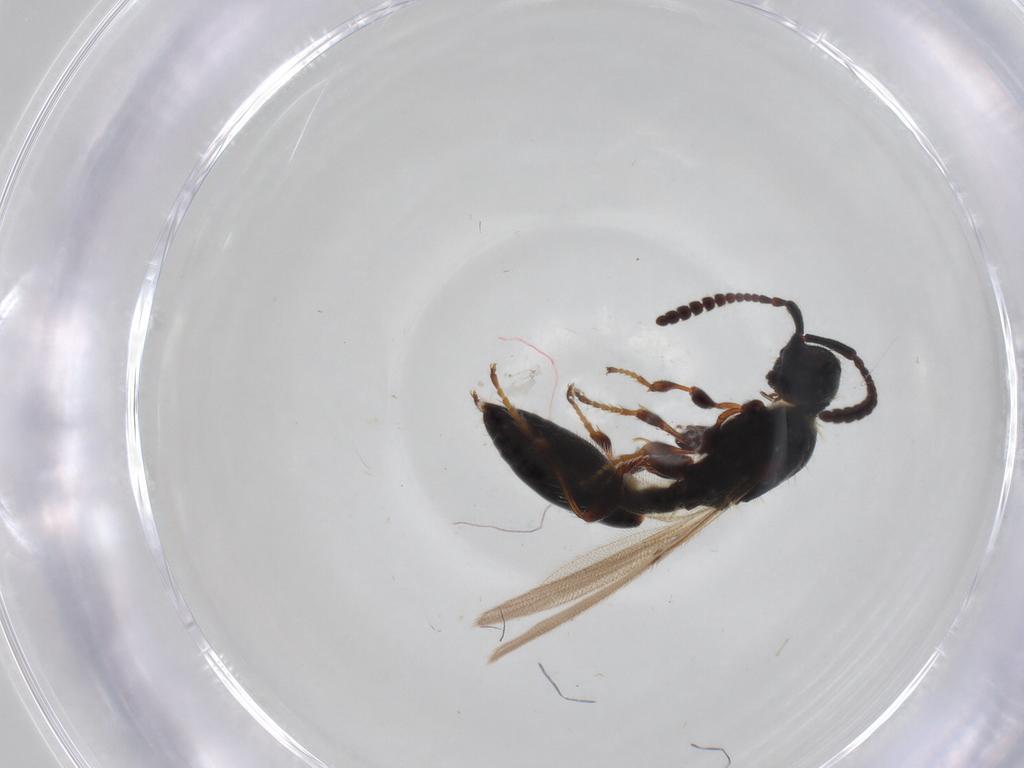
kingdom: Animalia
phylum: Arthropoda
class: Insecta
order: Hymenoptera
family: Diapriidae
